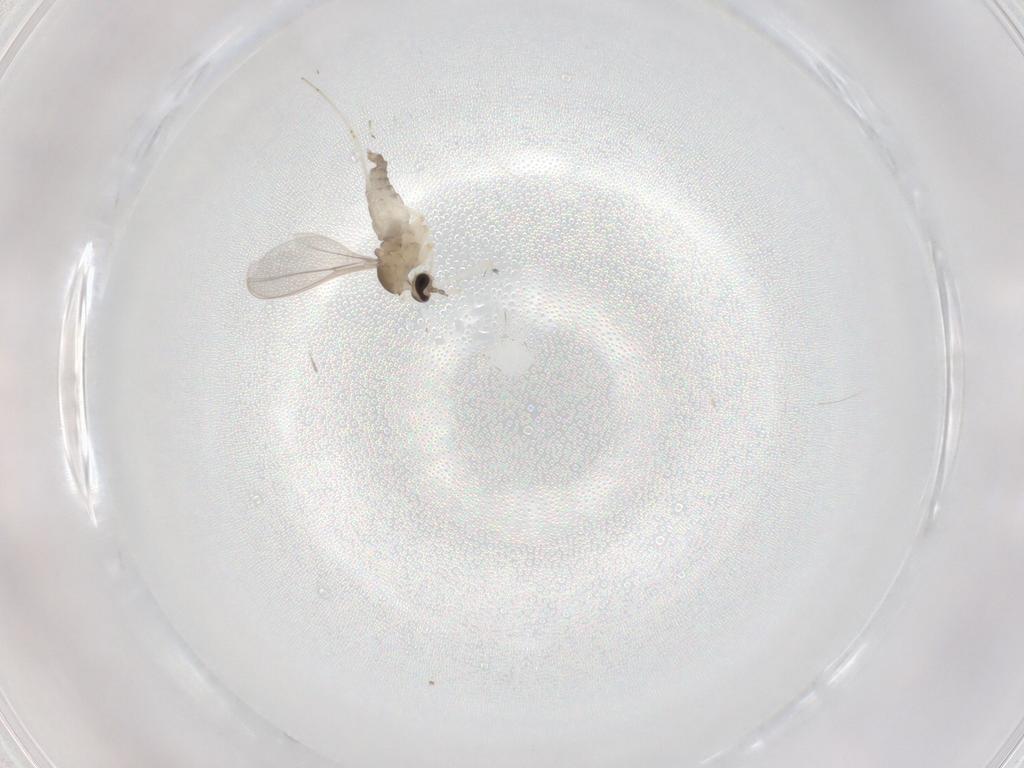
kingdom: Animalia
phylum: Arthropoda
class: Insecta
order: Diptera
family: Cecidomyiidae
